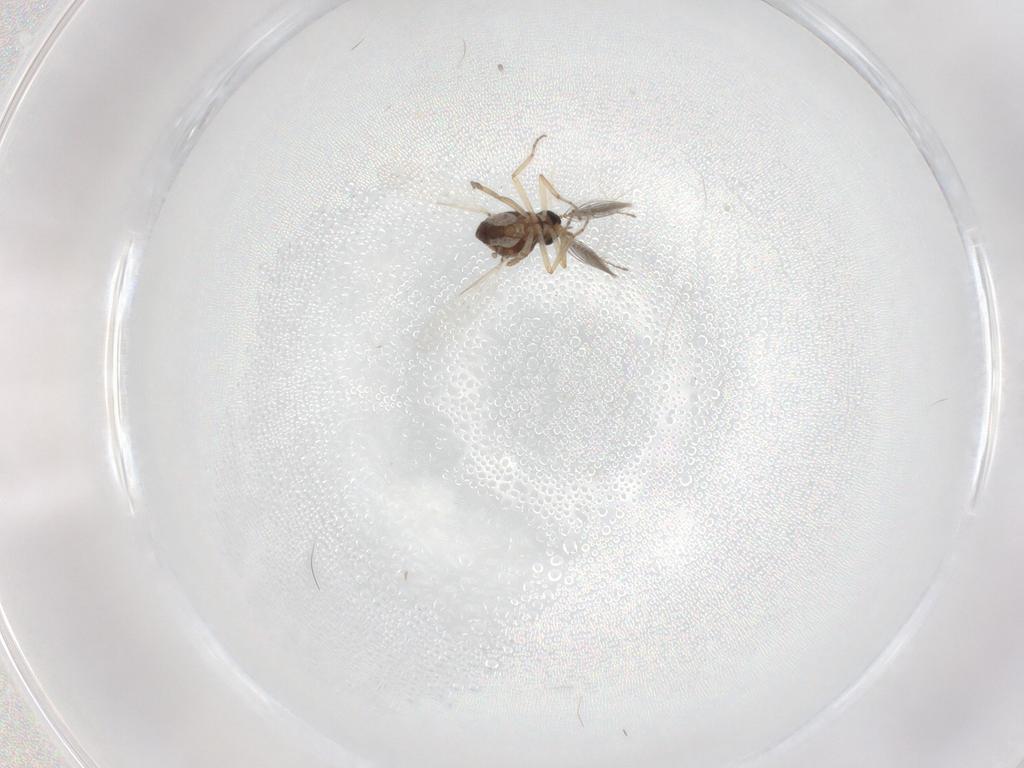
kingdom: Animalia
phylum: Arthropoda
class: Insecta
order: Diptera
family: Ceratopogonidae
